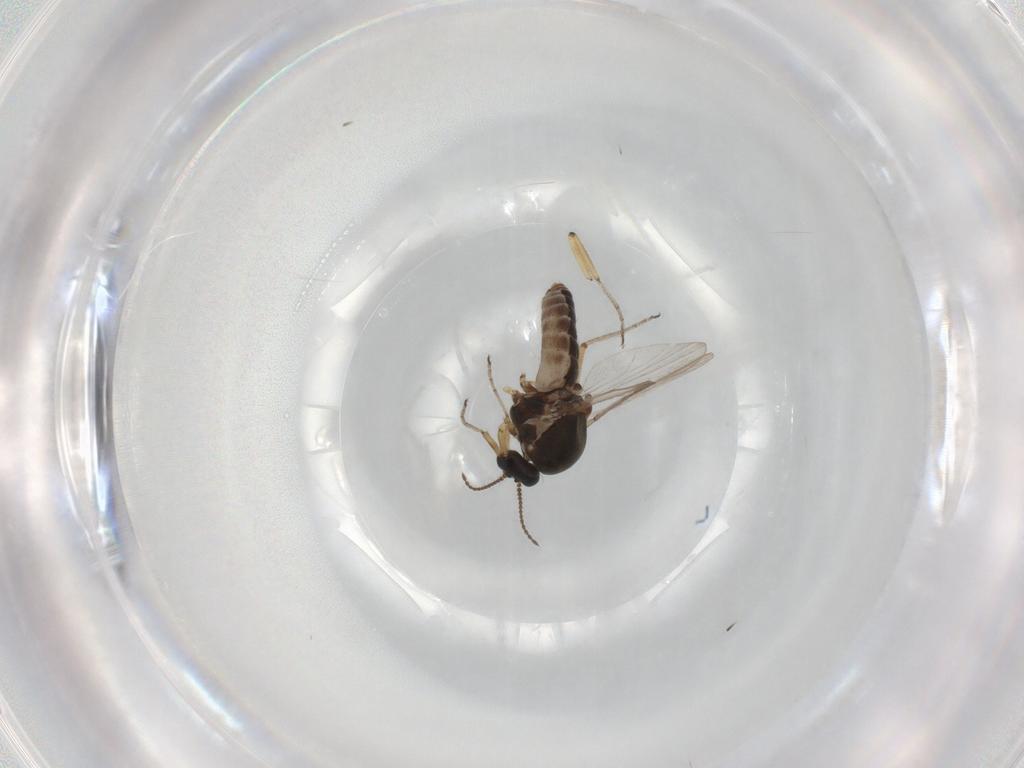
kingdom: Animalia
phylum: Arthropoda
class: Insecta
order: Diptera
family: Ceratopogonidae
